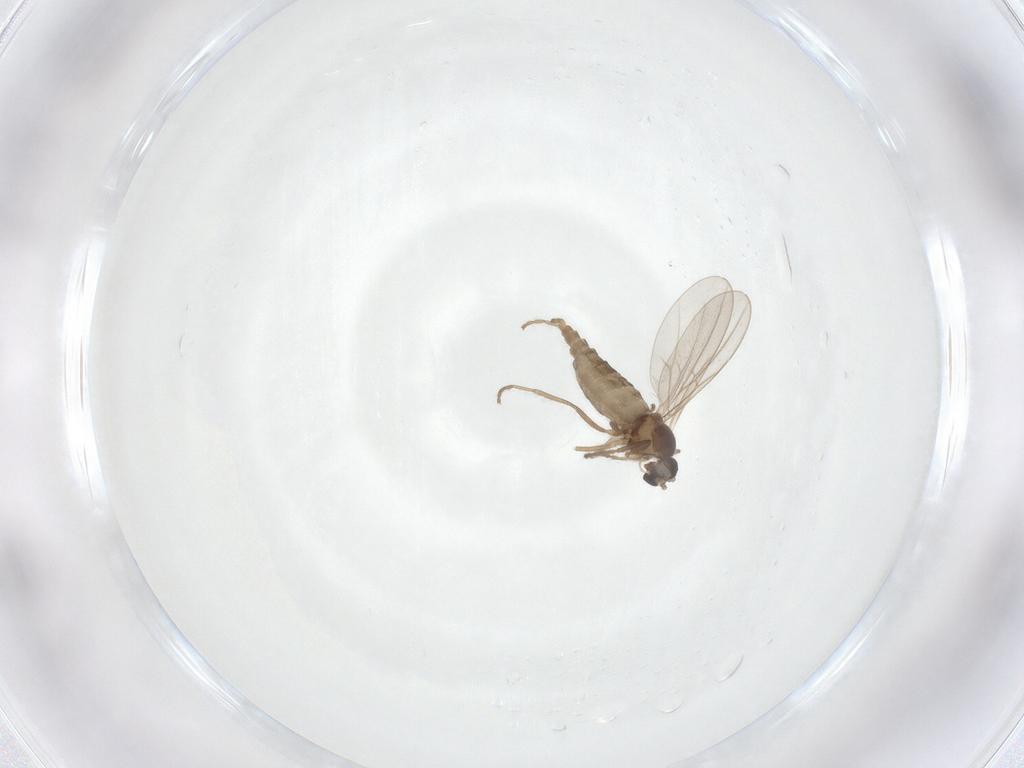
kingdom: Animalia
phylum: Arthropoda
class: Insecta
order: Diptera
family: Cecidomyiidae
